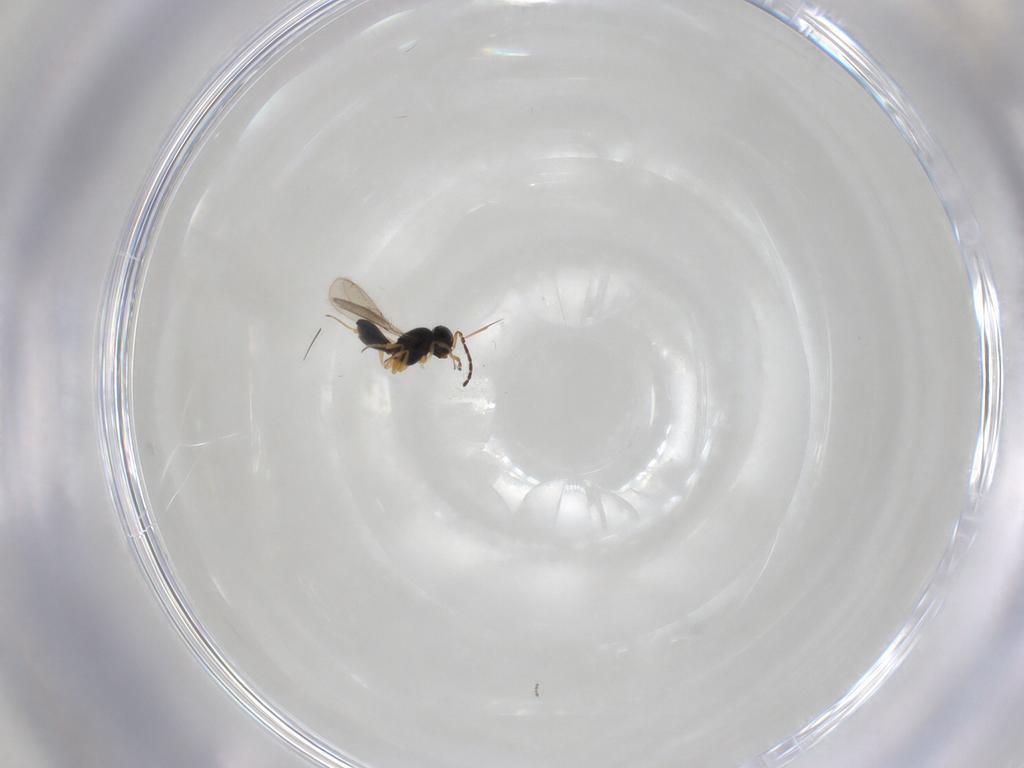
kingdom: Animalia
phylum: Arthropoda
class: Insecta
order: Hymenoptera
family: Scelionidae
